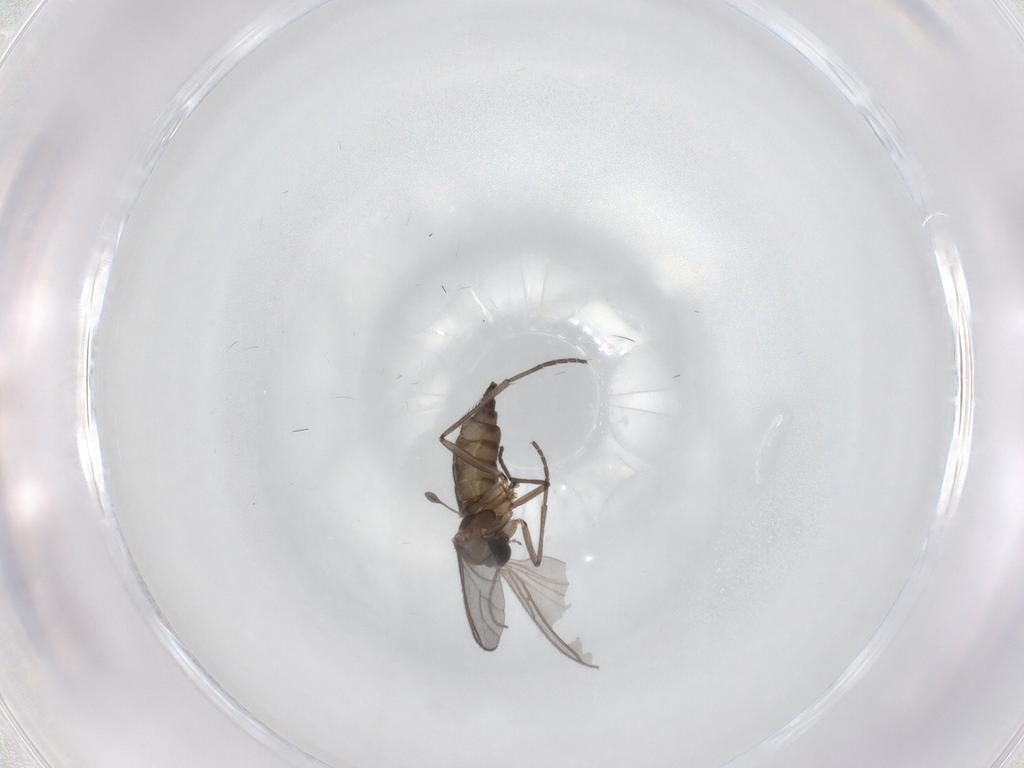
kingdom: Animalia
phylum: Arthropoda
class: Insecta
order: Diptera
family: Sciaridae
